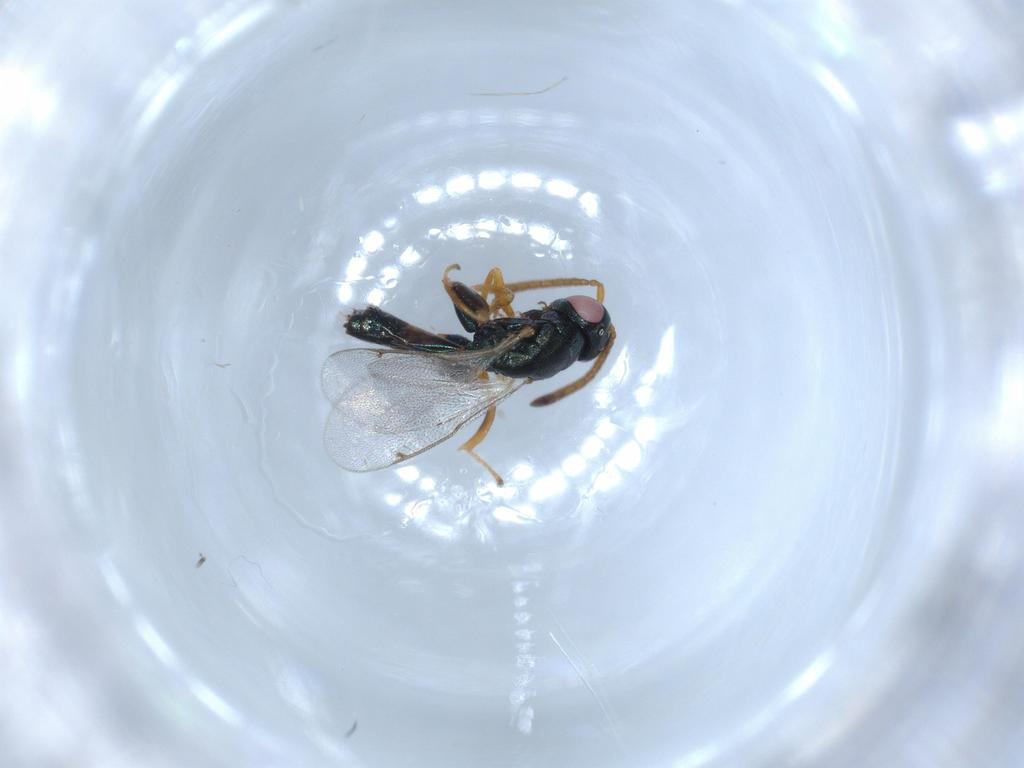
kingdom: Animalia
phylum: Arthropoda
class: Insecta
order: Hymenoptera
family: Torymidae
